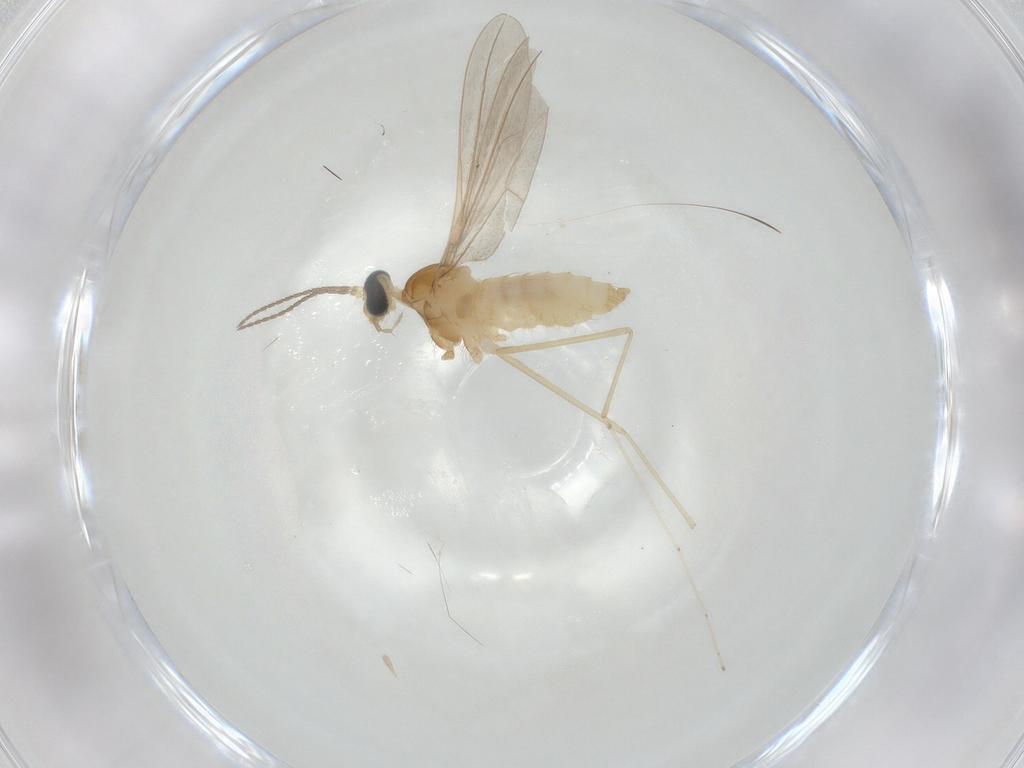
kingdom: Animalia
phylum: Arthropoda
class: Insecta
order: Diptera
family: Cecidomyiidae
